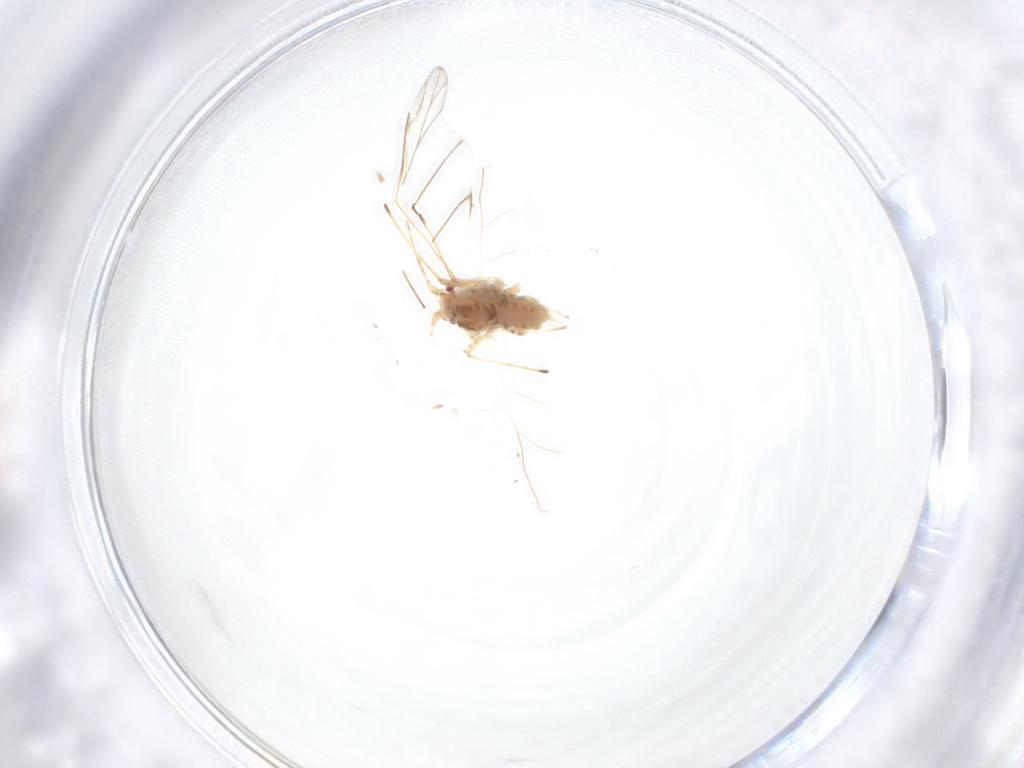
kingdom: Animalia
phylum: Arthropoda
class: Insecta
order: Hemiptera
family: Aphididae
